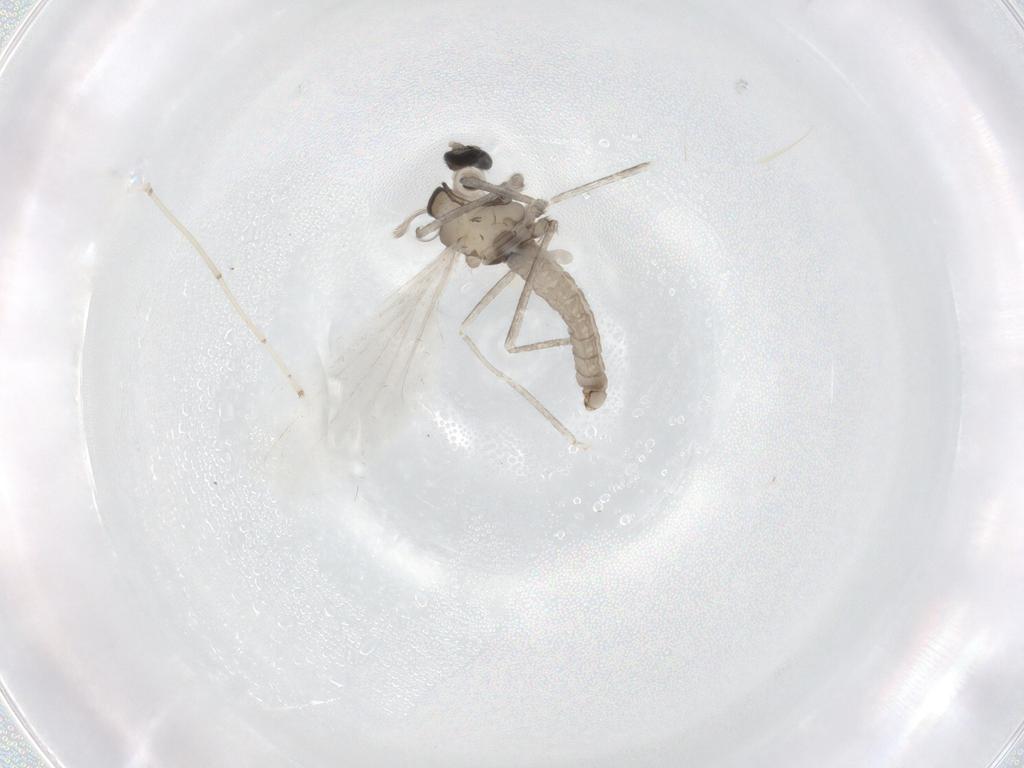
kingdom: Animalia
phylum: Arthropoda
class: Insecta
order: Diptera
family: Cecidomyiidae
